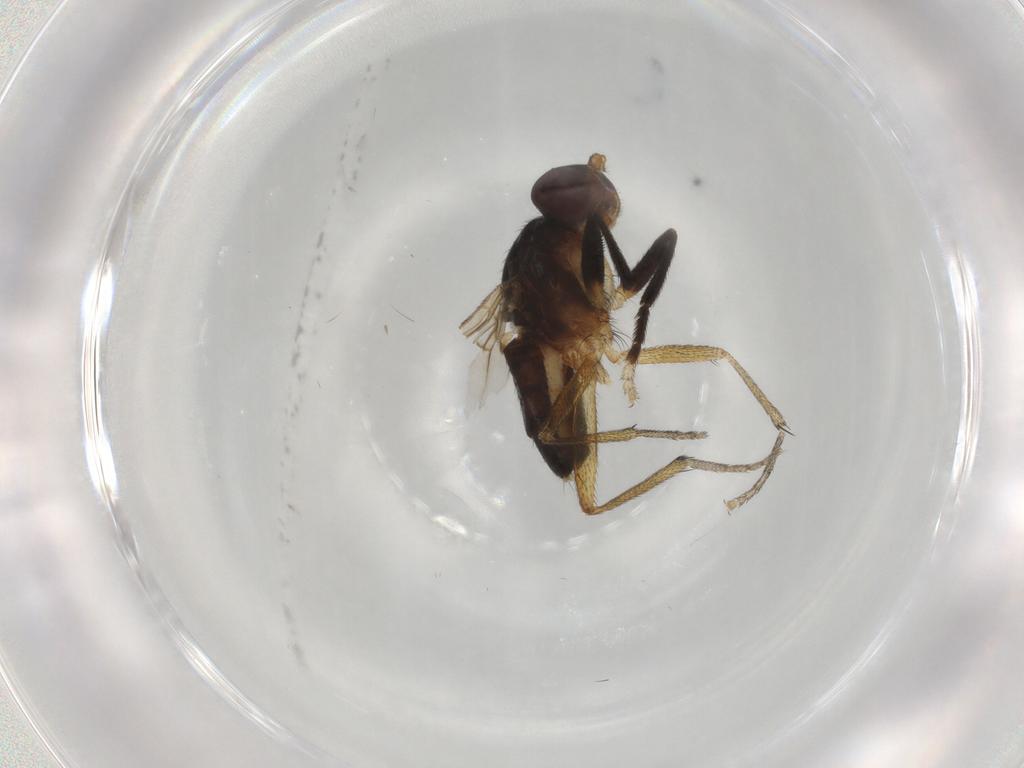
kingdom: Animalia
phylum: Arthropoda
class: Insecta
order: Diptera
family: Sciomyzidae
